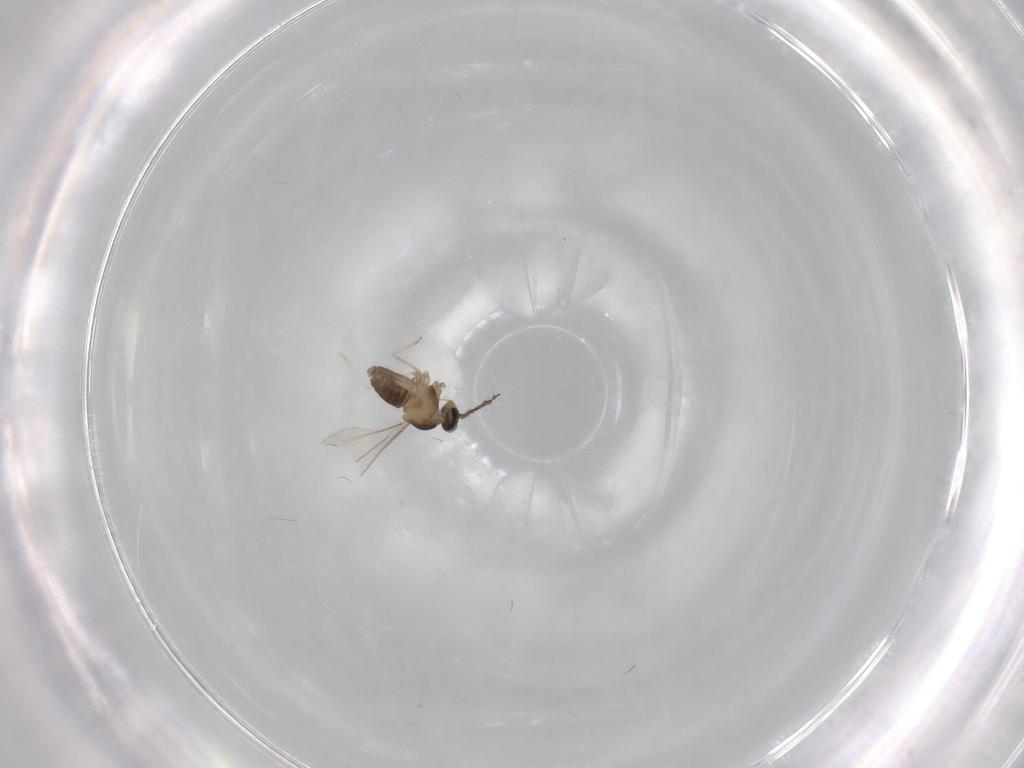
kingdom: Animalia
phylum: Arthropoda
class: Insecta
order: Diptera
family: Cecidomyiidae
